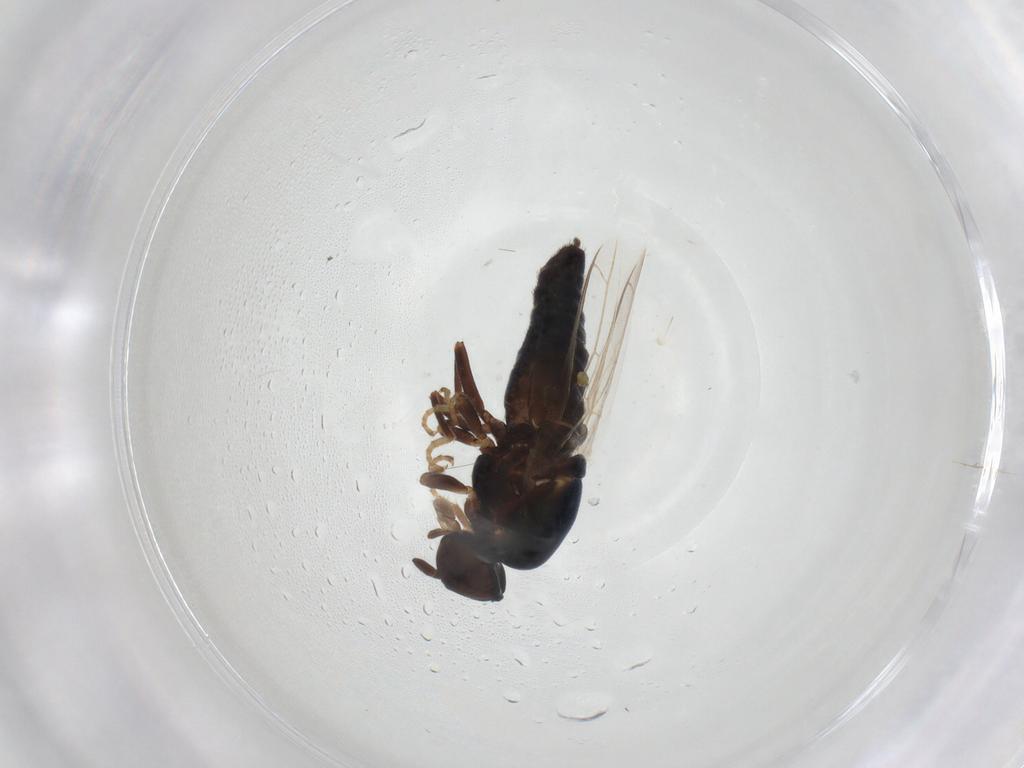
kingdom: Animalia
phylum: Arthropoda
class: Insecta
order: Diptera
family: Scenopinidae
